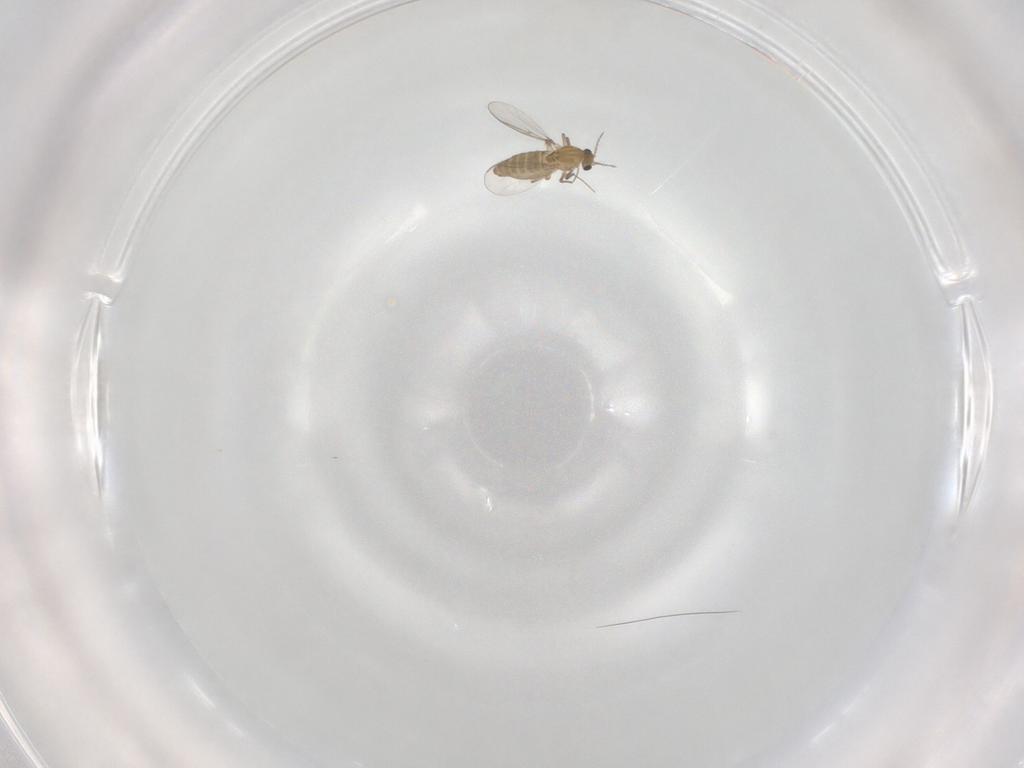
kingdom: Animalia
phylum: Arthropoda
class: Insecta
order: Diptera
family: Chironomidae
